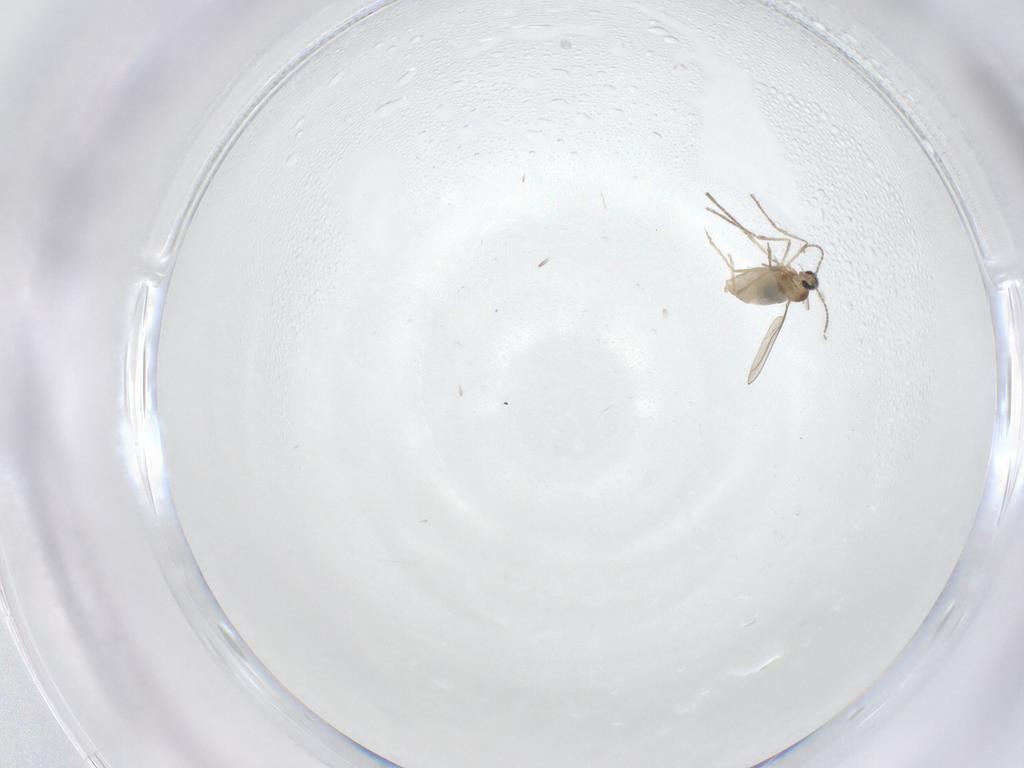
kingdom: Animalia
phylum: Arthropoda
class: Insecta
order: Diptera
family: Cecidomyiidae
